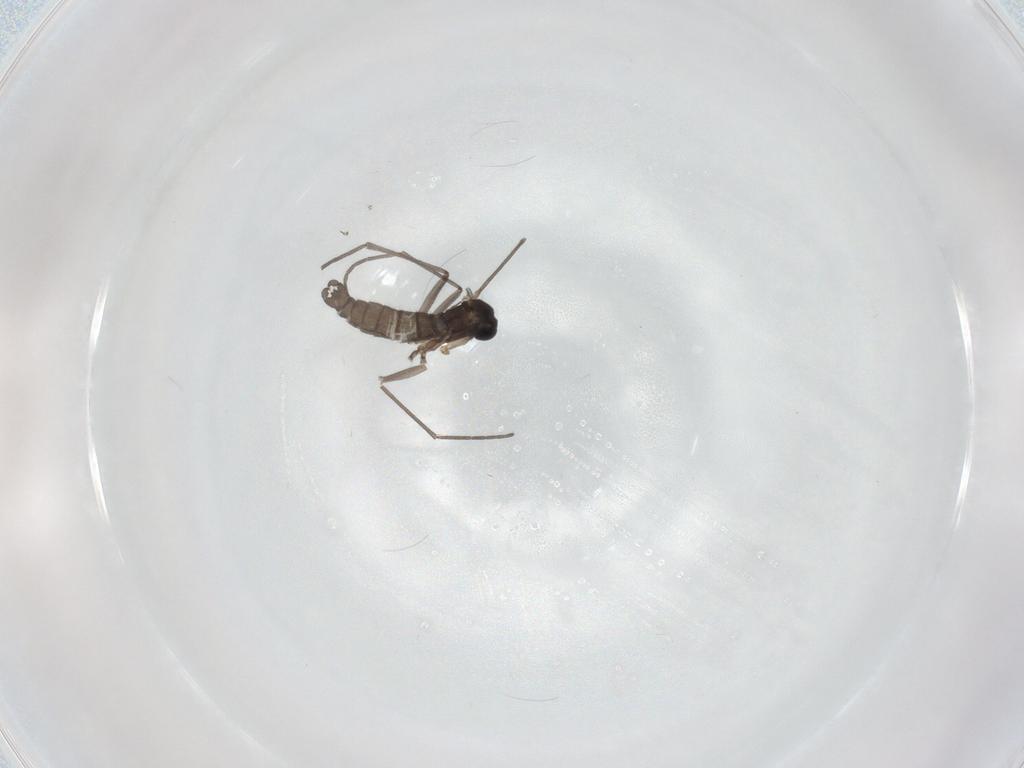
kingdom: Animalia
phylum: Arthropoda
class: Insecta
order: Diptera
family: Sciaridae
